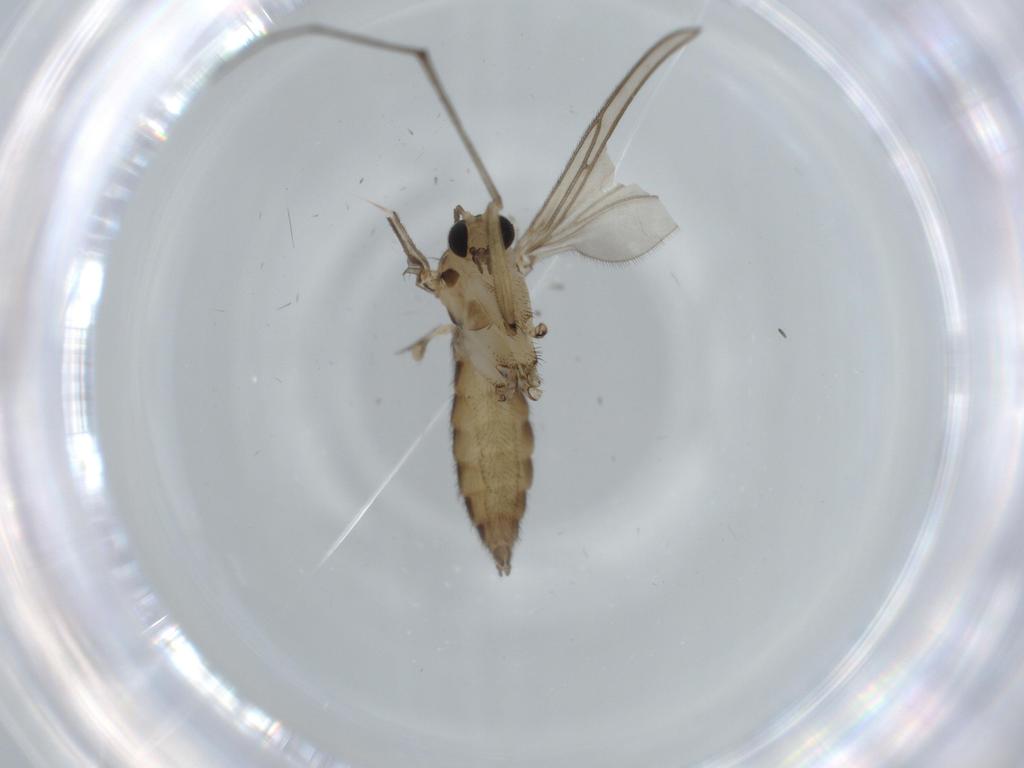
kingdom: Animalia
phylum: Arthropoda
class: Insecta
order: Diptera
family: Sciaridae
